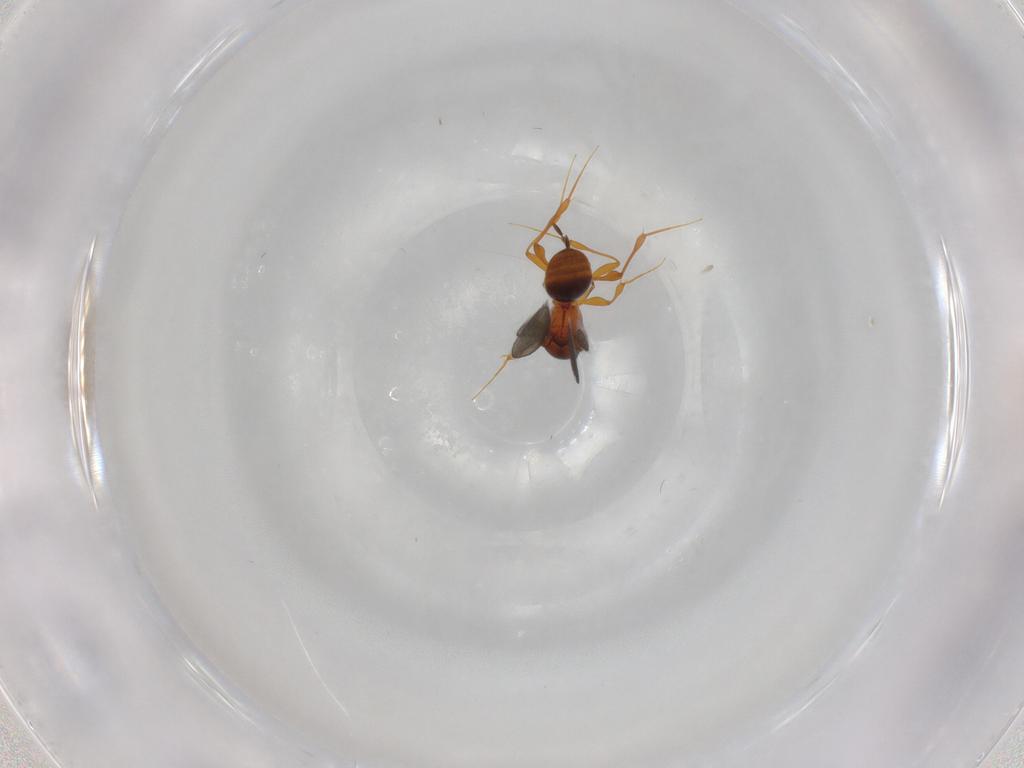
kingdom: Animalia
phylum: Arthropoda
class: Insecta
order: Hymenoptera
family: Platygastridae
